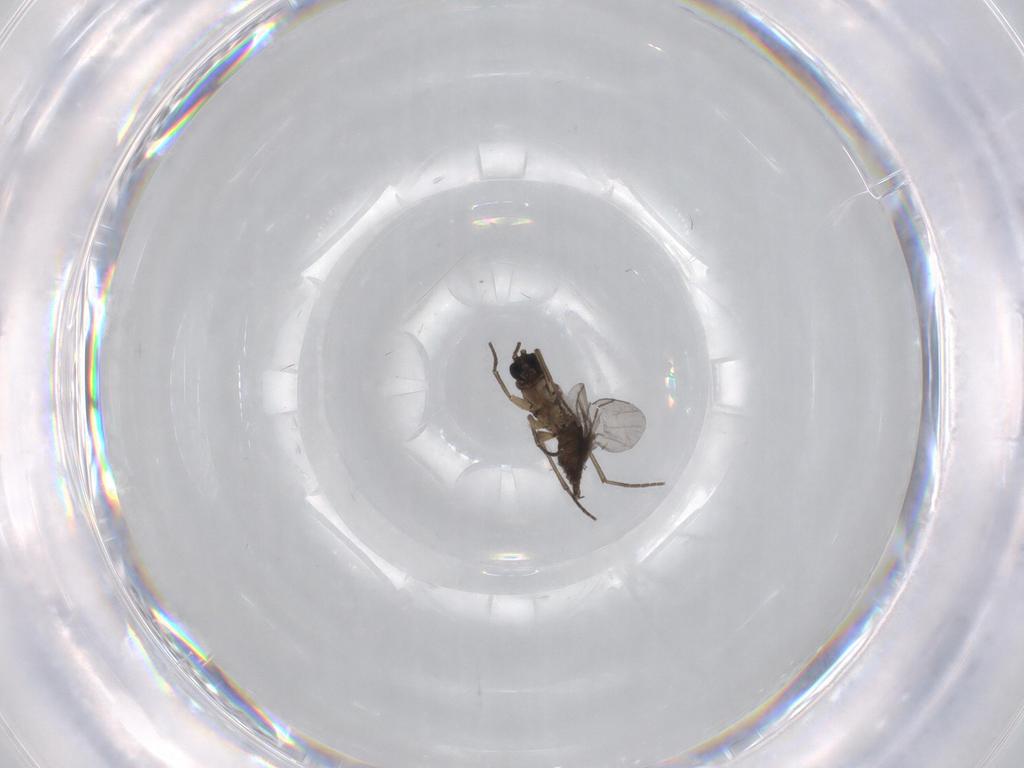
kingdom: Animalia
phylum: Arthropoda
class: Insecta
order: Diptera
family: Sciaridae
